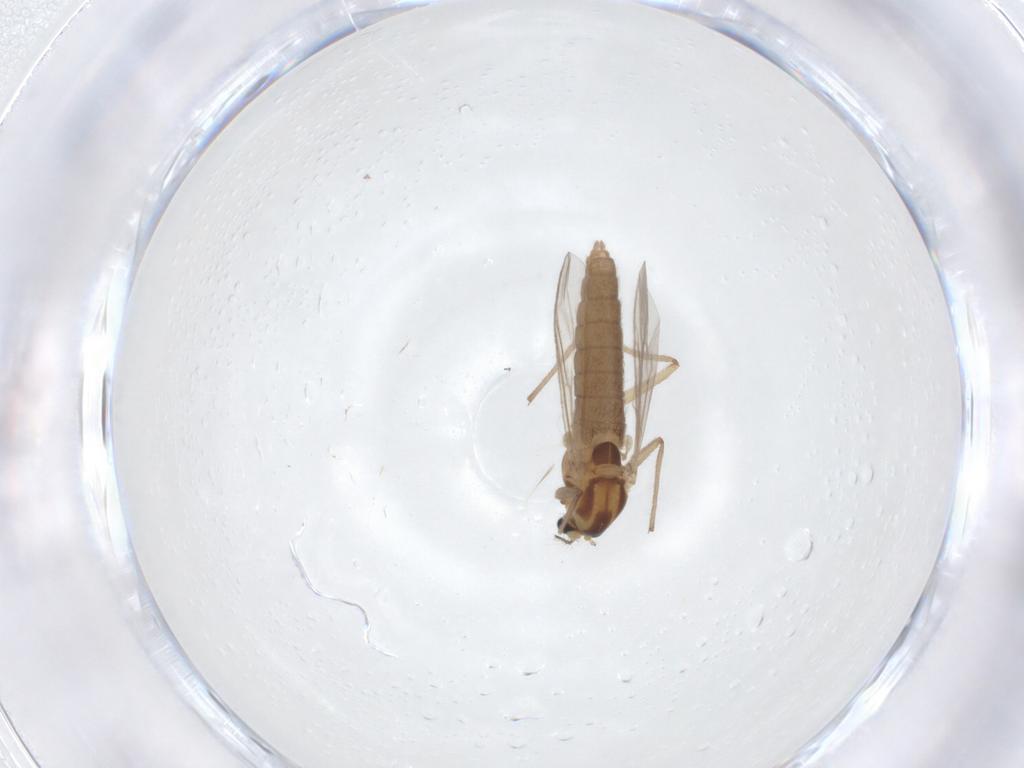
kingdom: Animalia
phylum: Arthropoda
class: Insecta
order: Diptera
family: Chironomidae
